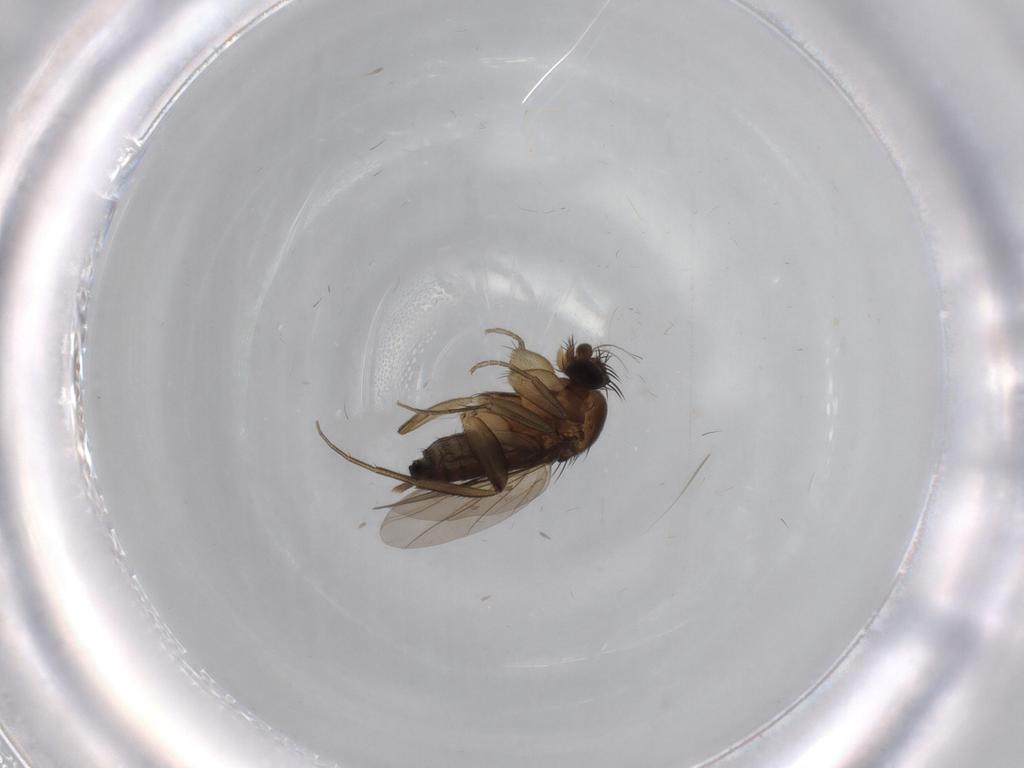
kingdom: Animalia
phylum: Arthropoda
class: Insecta
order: Diptera
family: Phoridae
